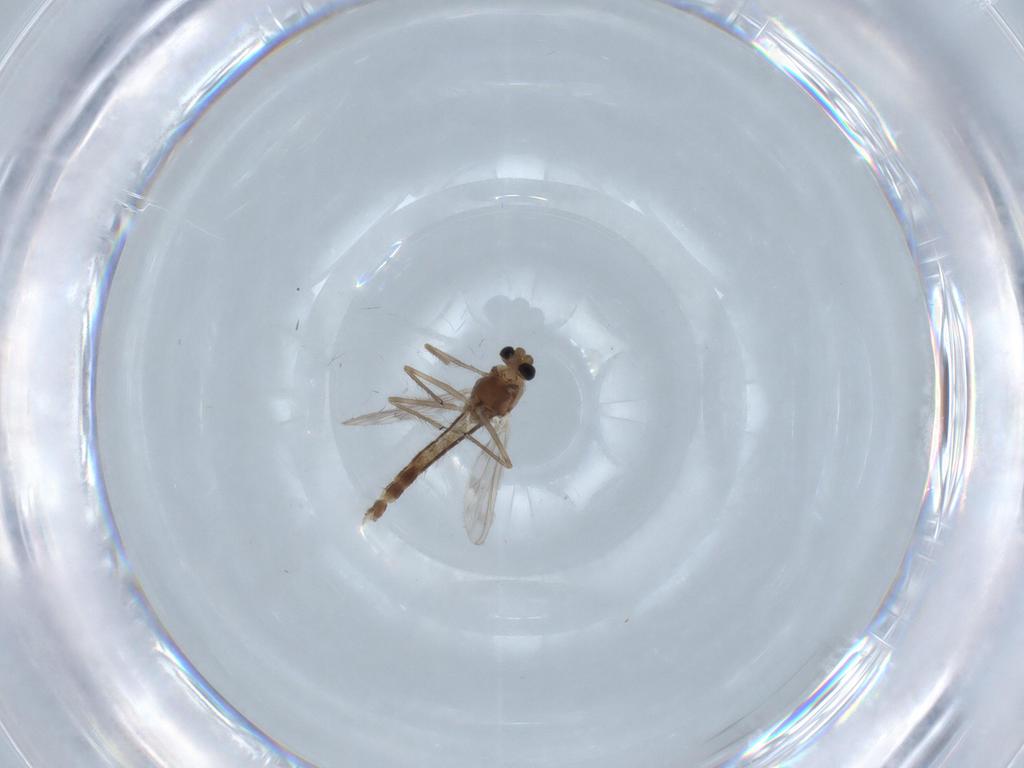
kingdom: Animalia
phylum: Arthropoda
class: Insecta
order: Diptera
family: Chironomidae
